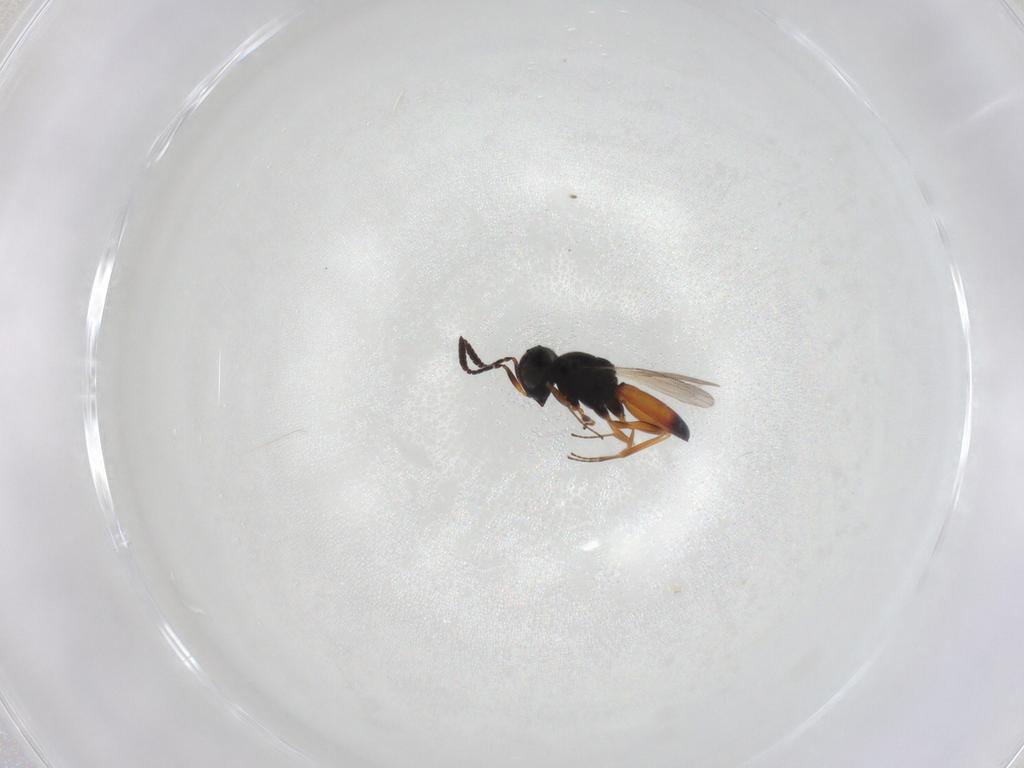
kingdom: Animalia
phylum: Arthropoda
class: Insecta
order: Hymenoptera
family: Scelionidae
